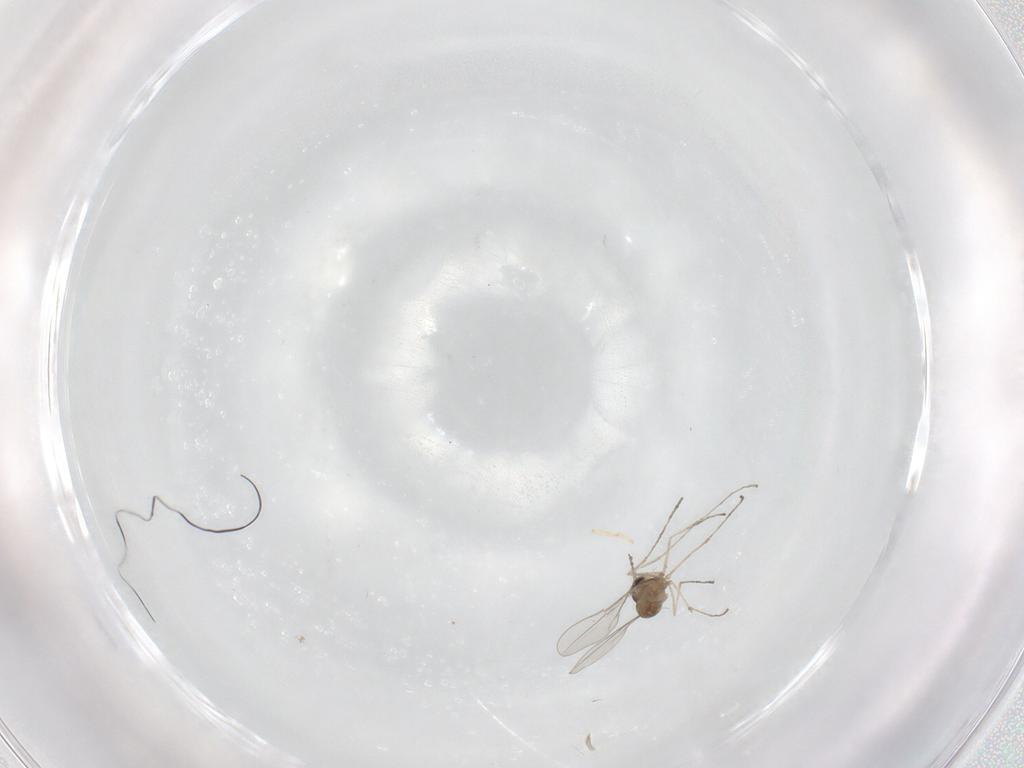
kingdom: Animalia
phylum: Arthropoda
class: Insecta
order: Diptera
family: Cecidomyiidae
